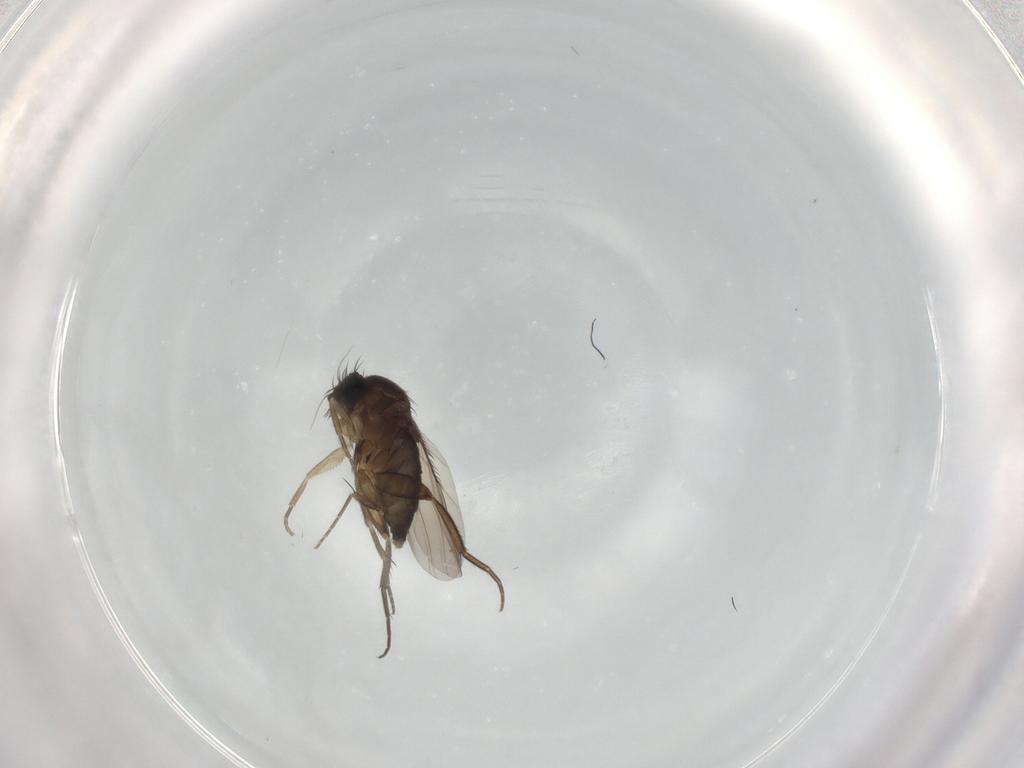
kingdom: Animalia
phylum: Arthropoda
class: Insecta
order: Diptera
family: Phoridae
